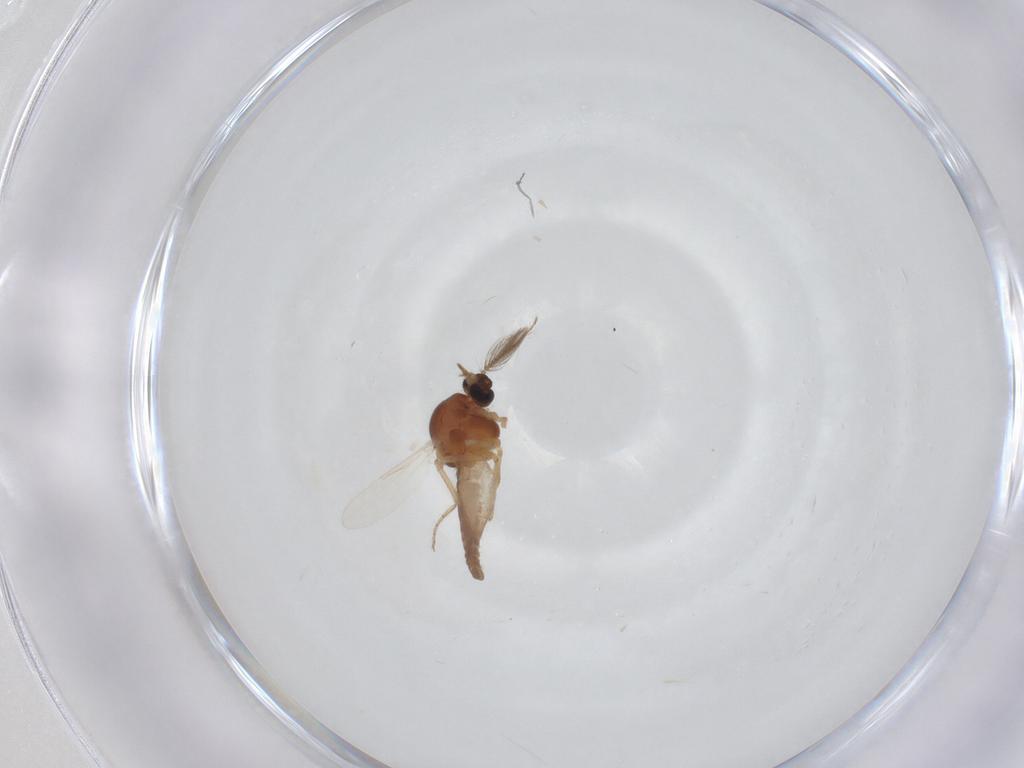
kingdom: Animalia
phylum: Arthropoda
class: Insecta
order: Diptera
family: Ceratopogonidae
